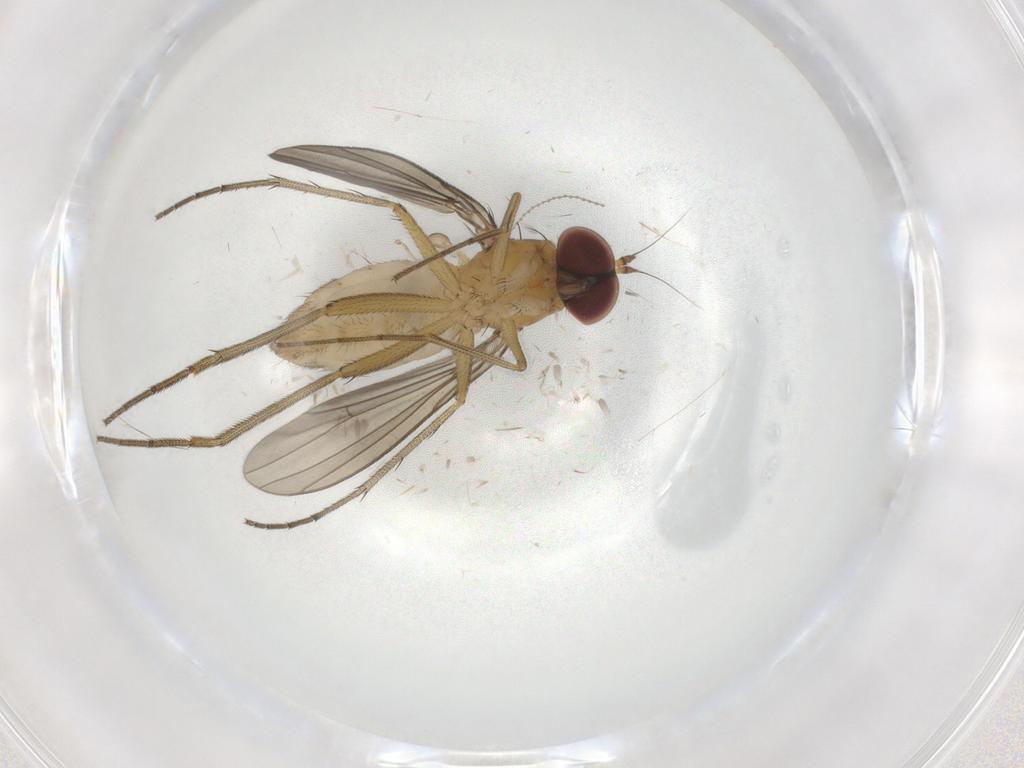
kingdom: Animalia
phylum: Arthropoda
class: Insecta
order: Diptera
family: Dolichopodidae
